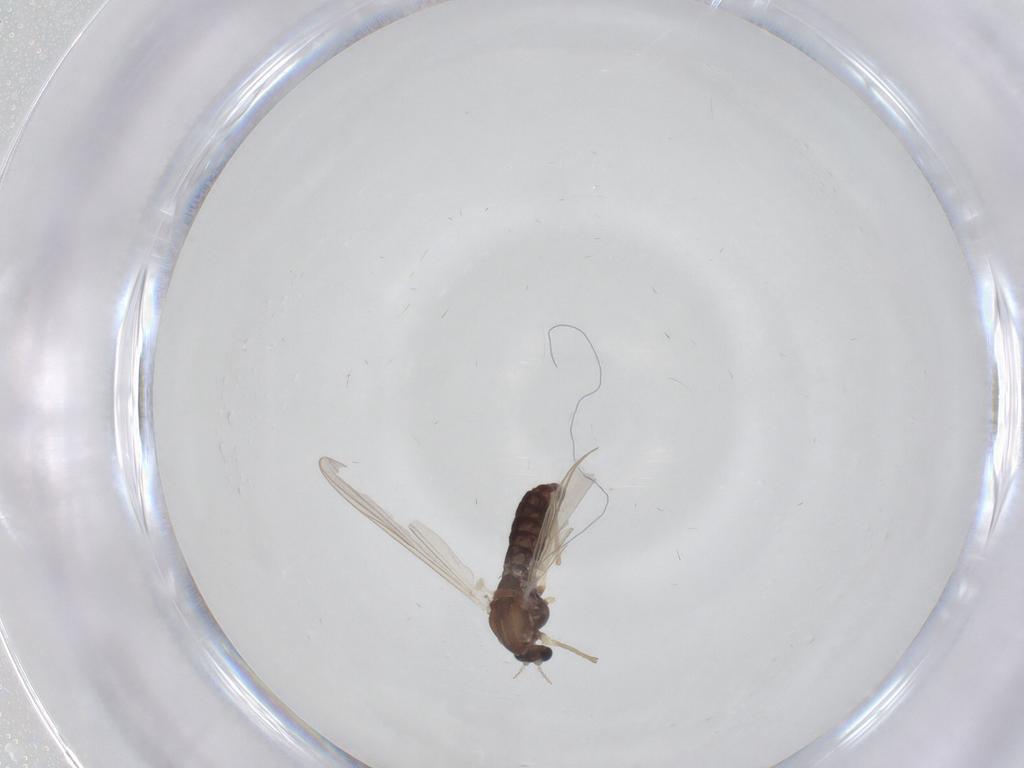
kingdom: Animalia
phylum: Arthropoda
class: Insecta
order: Diptera
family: Chironomidae
